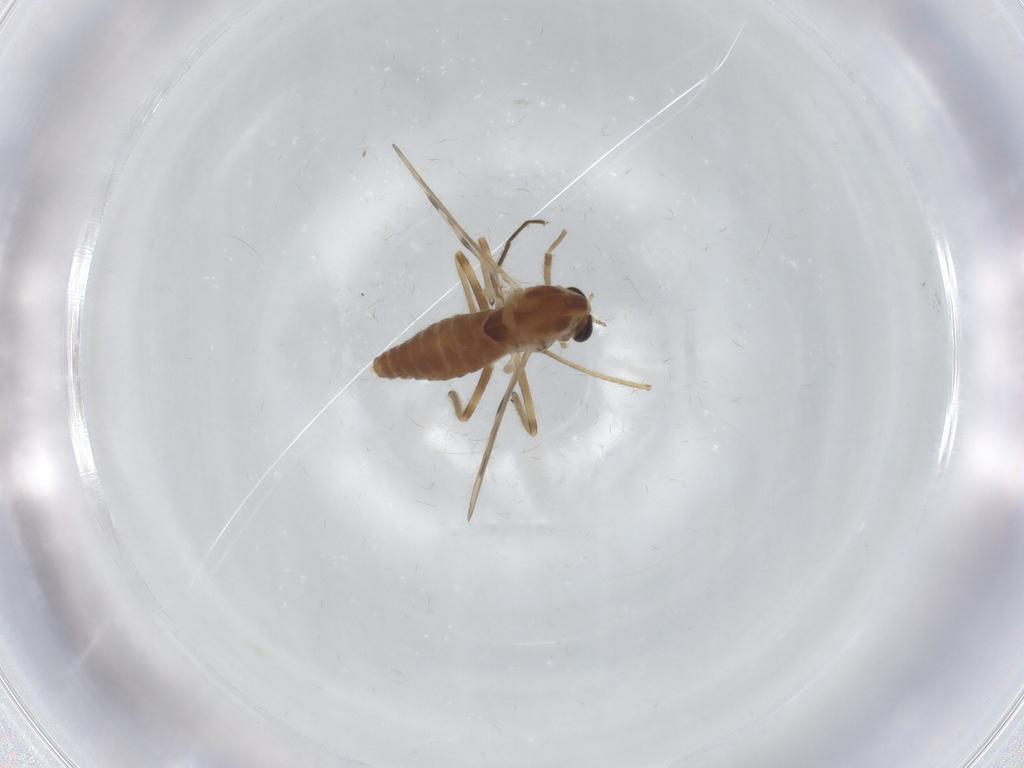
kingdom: Animalia
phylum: Arthropoda
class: Insecta
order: Diptera
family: Chironomidae
